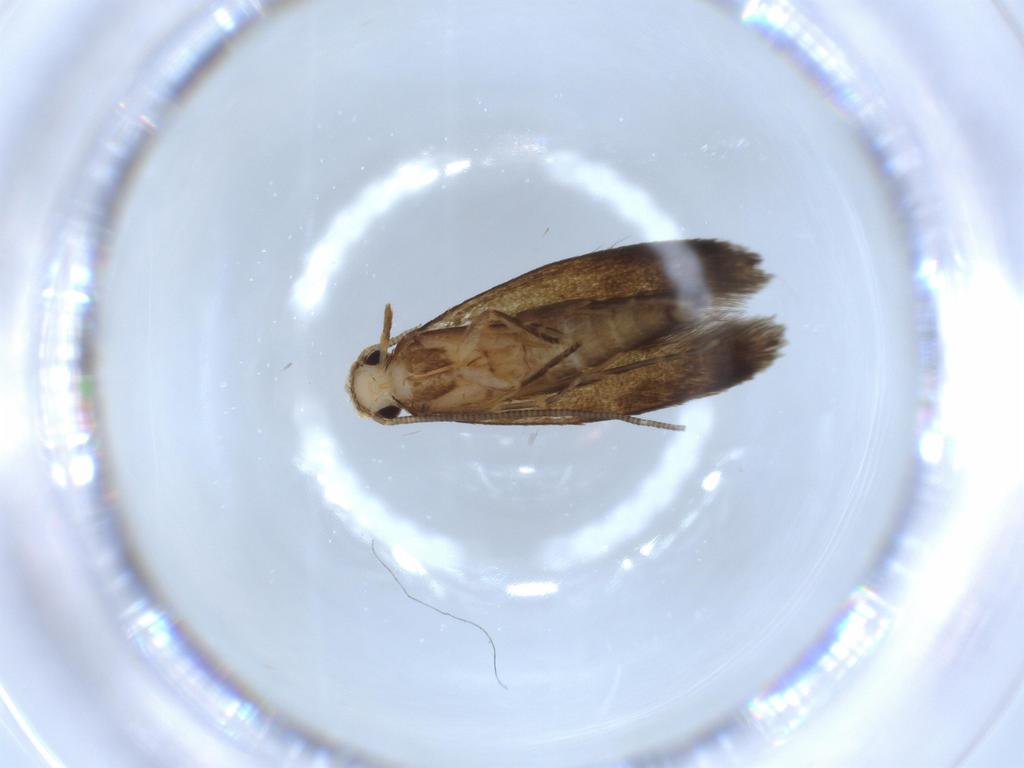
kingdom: Animalia
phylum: Arthropoda
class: Insecta
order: Lepidoptera
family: Tineidae
